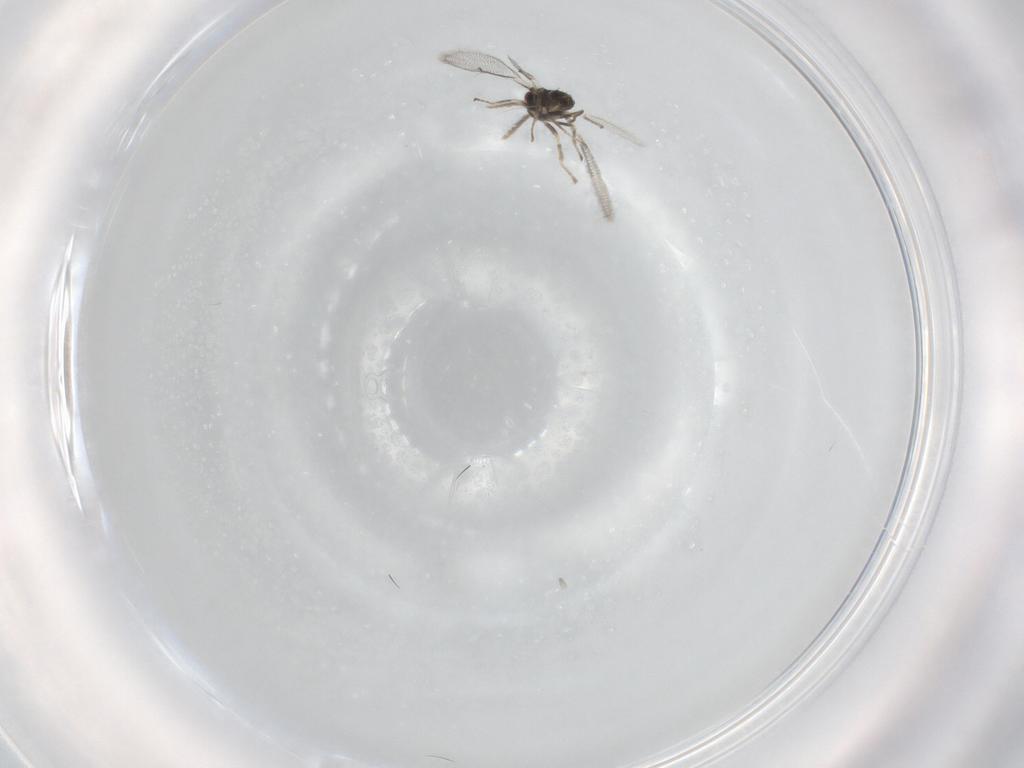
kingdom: Animalia
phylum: Arthropoda
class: Insecta
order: Hymenoptera
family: Eulophidae
